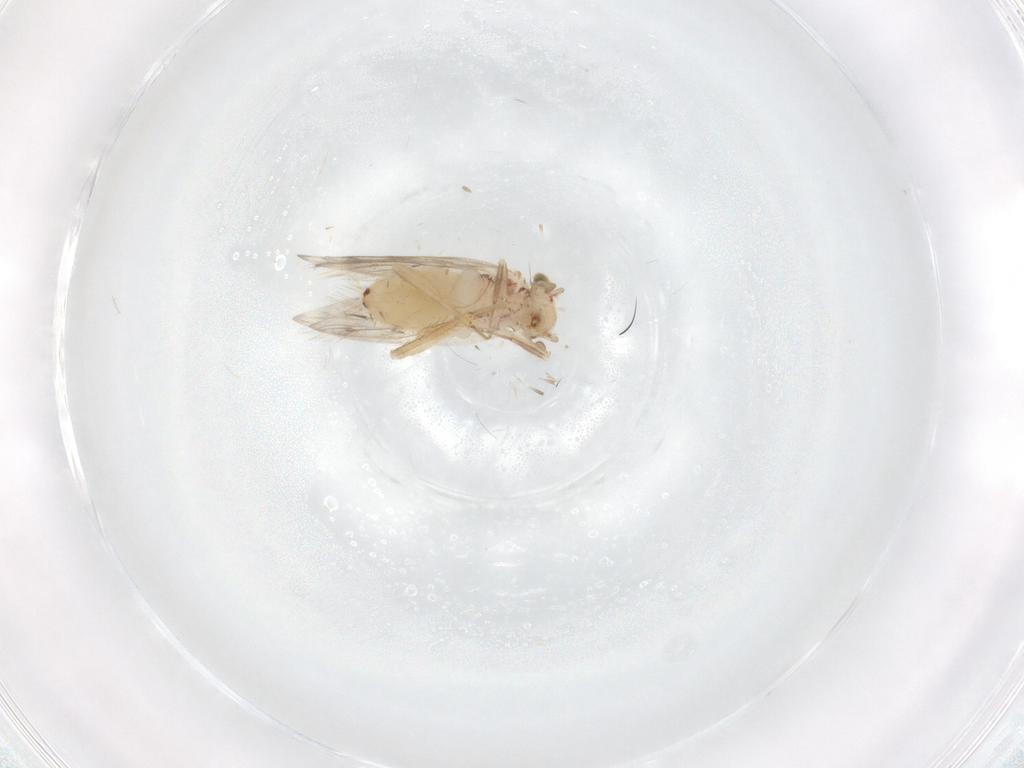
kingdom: Animalia
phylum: Arthropoda
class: Insecta
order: Psocodea
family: Lepidopsocidae
